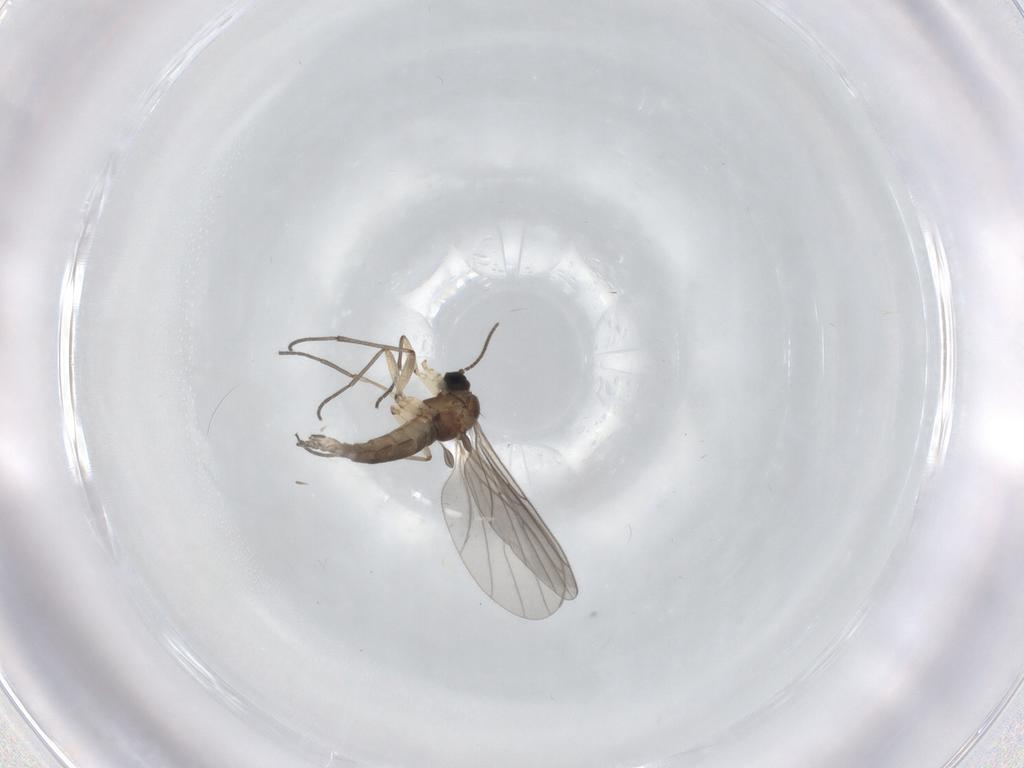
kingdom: Animalia
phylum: Arthropoda
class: Insecta
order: Diptera
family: Sciaridae
